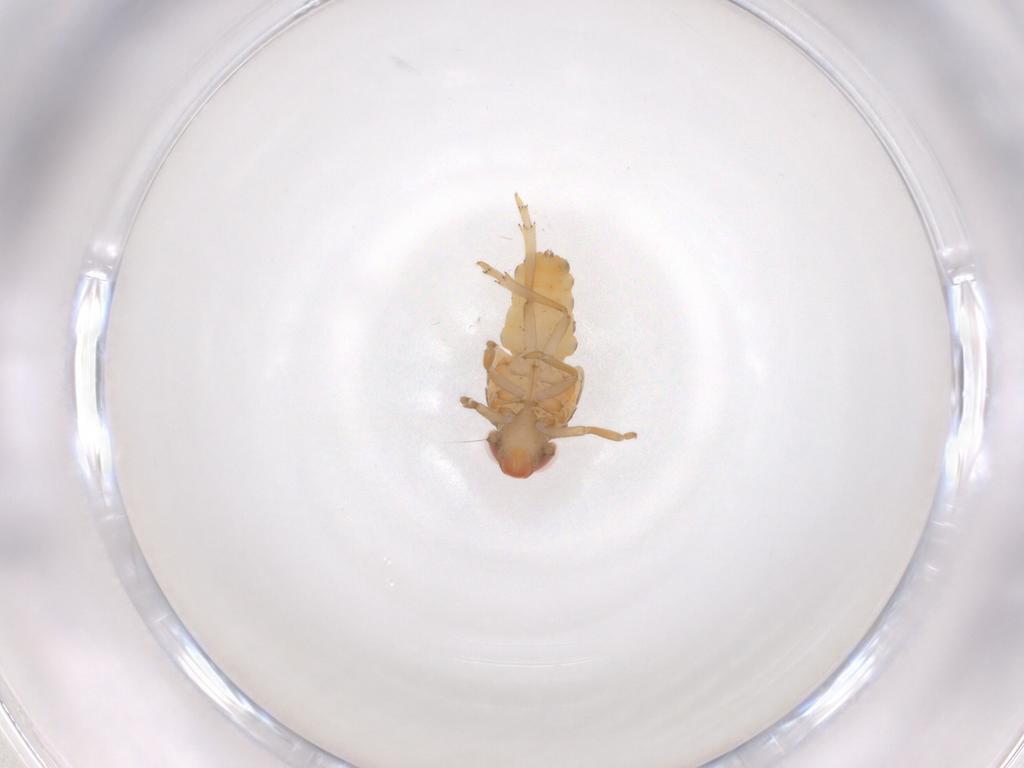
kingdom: Animalia
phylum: Arthropoda
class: Insecta
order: Hemiptera
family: Issidae
